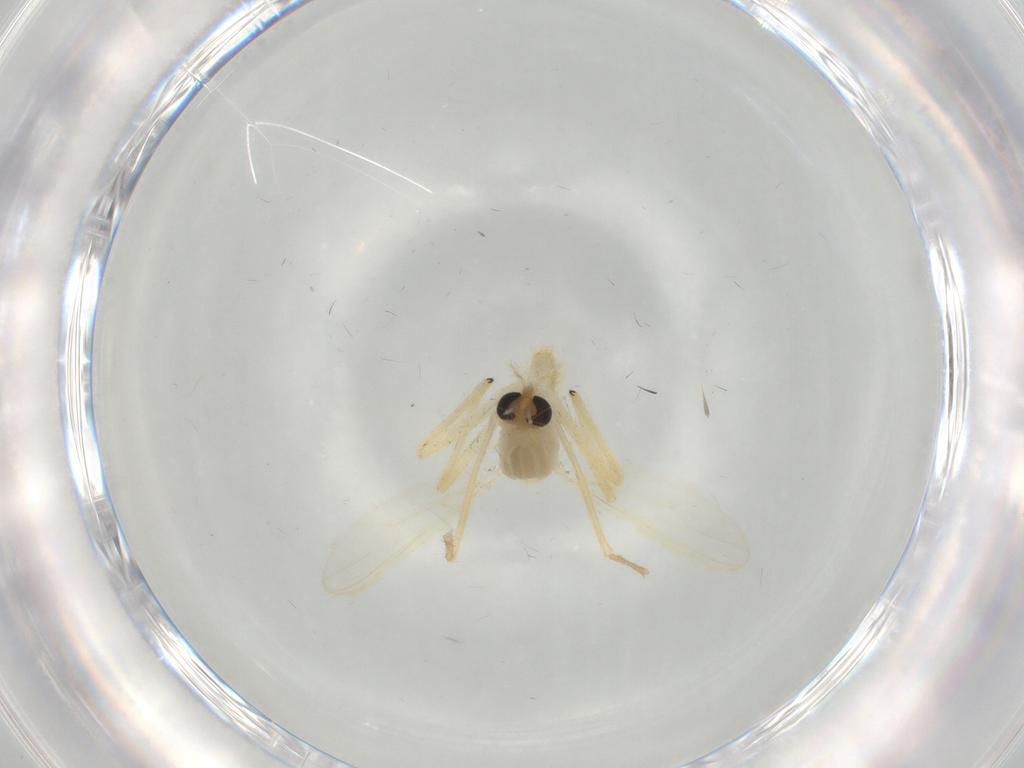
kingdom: Animalia
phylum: Arthropoda
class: Insecta
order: Diptera
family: Chironomidae
